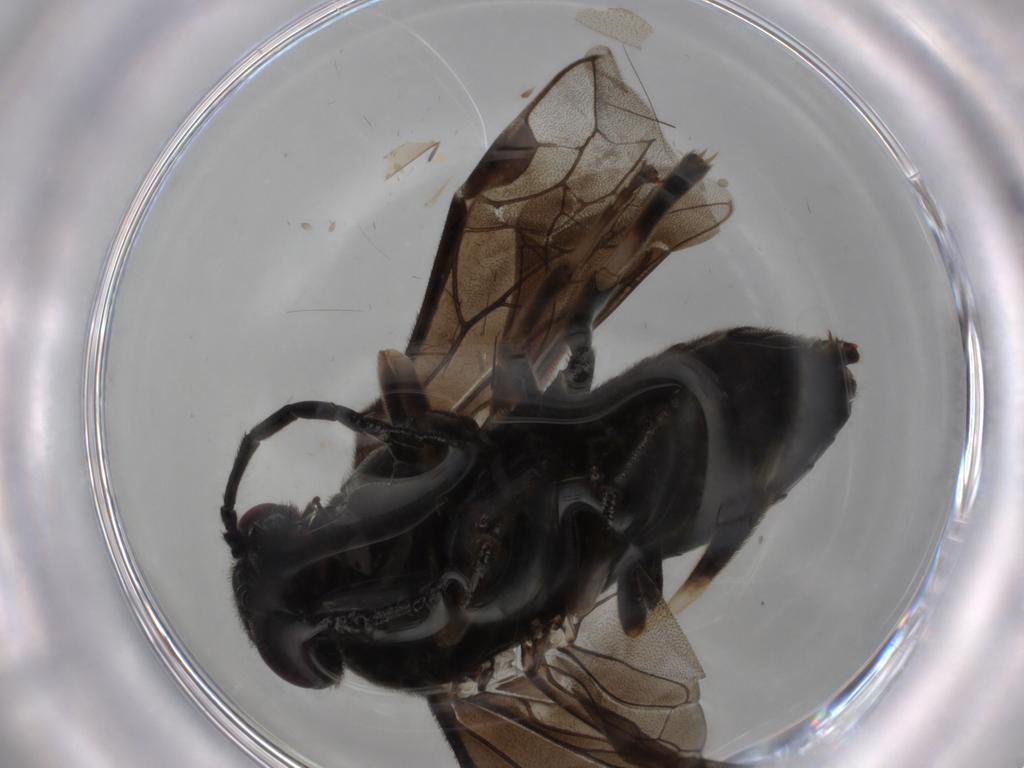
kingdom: Animalia
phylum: Arthropoda
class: Insecta
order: Hymenoptera
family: Tenthredinidae
